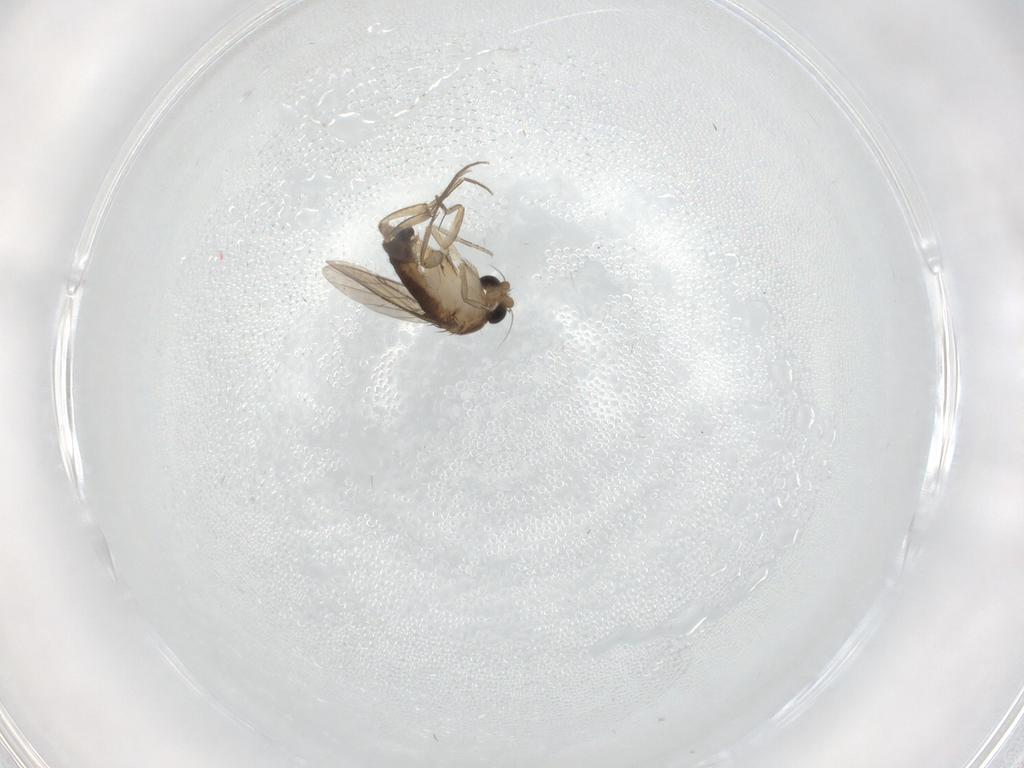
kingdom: Animalia
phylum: Arthropoda
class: Insecta
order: Diptera
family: Phoridae
